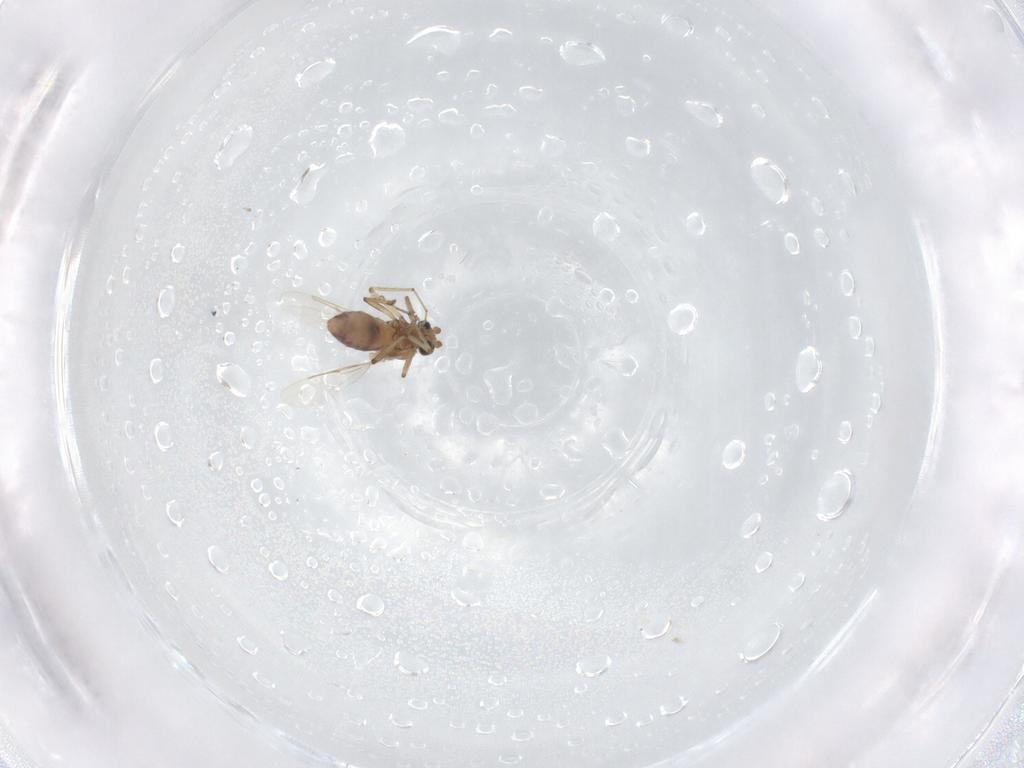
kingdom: Animalia
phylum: Arthropoda
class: Insecta
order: Diptera
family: Ceratopogonidae
